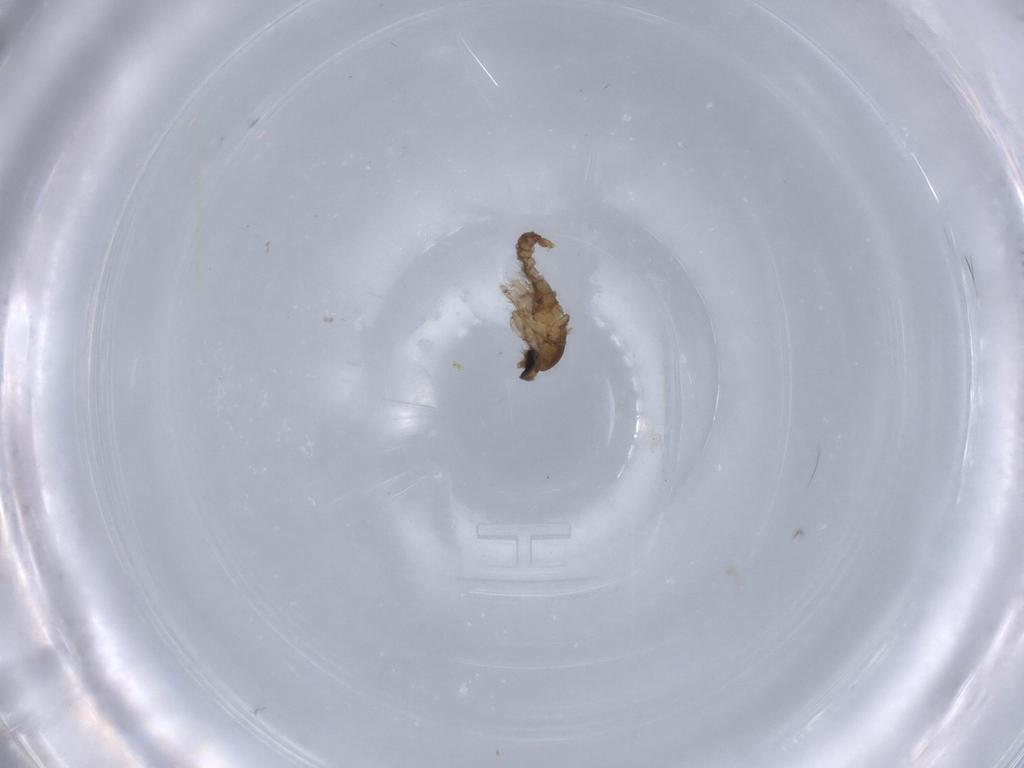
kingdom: Animalia
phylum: Arthropoda
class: Insecta
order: Diptera
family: Cecidomyiidae
